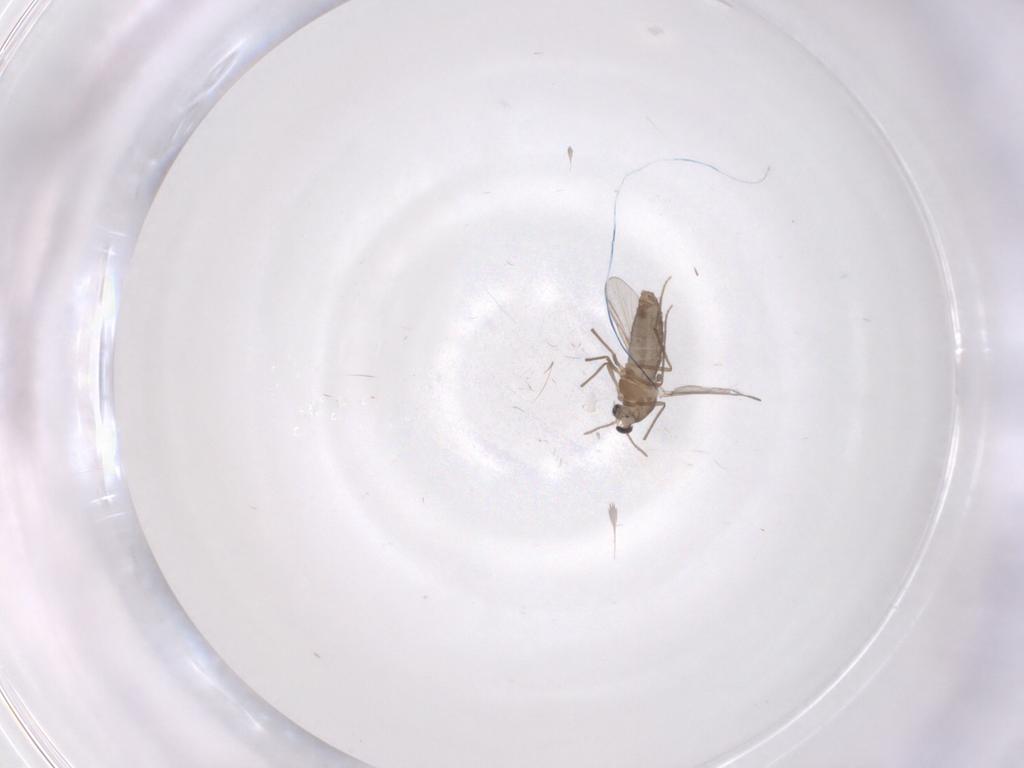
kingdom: Animalia
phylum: Arthropoda
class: Insecta
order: Diptera
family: Chironomidae
